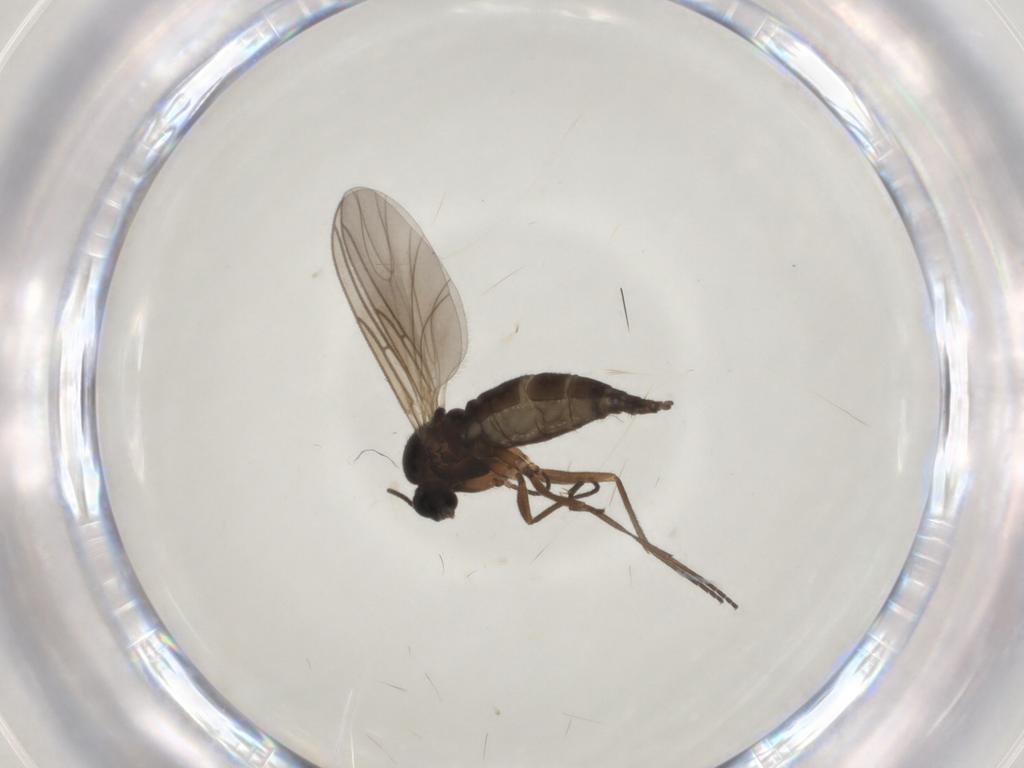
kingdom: Animalia
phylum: Arthropoda
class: Insecta
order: Diptera
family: Sciaridae
